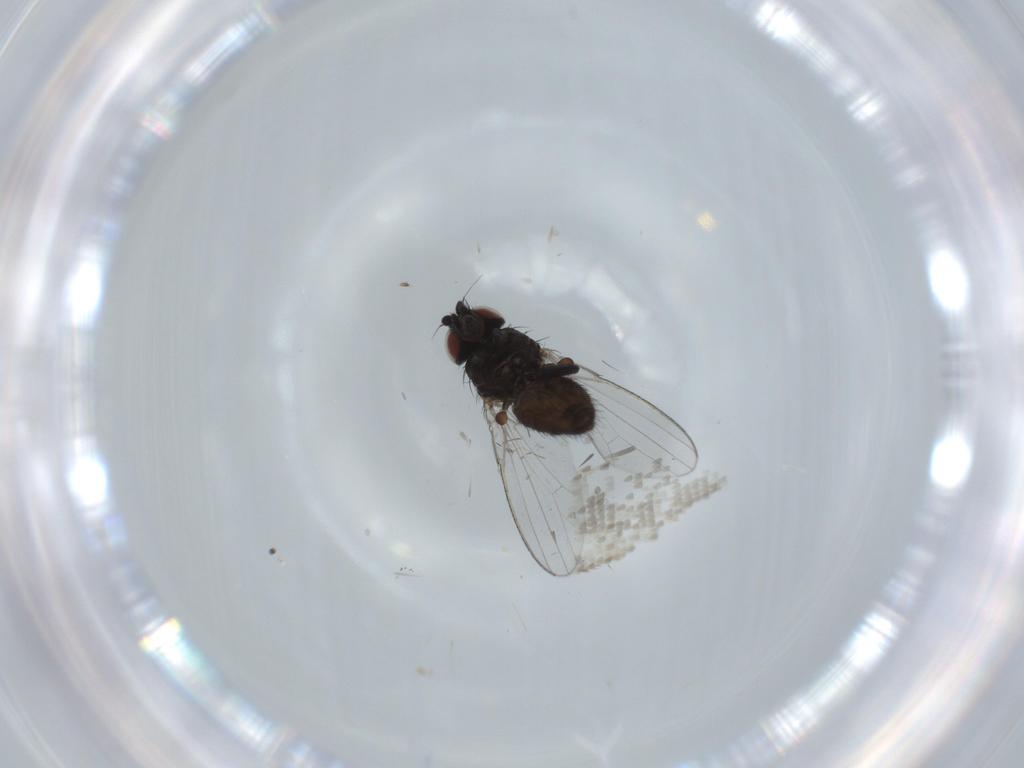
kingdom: Animalia
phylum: Arthropoda
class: Insecta
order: Diptera
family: Milichiidae
